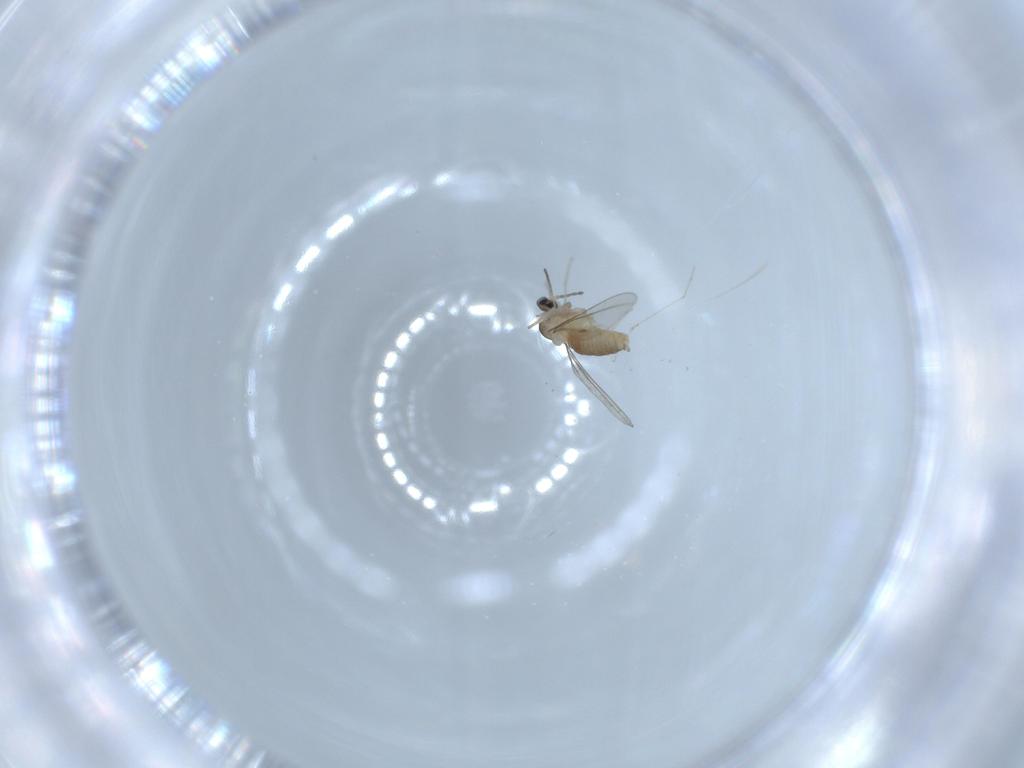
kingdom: Animalia
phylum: Arthropoda
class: Insecta
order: Diptera
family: Cecidomyiidae
